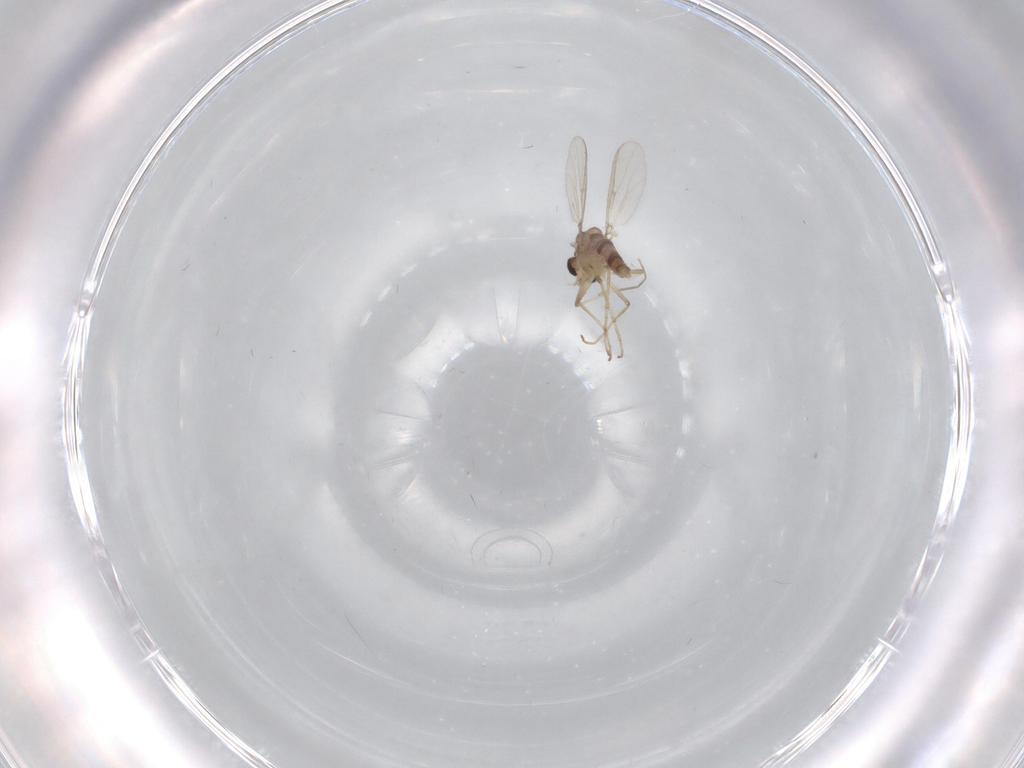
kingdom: Animalia
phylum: Arthropoda
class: Insecta
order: Diptera
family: Chironomidae
